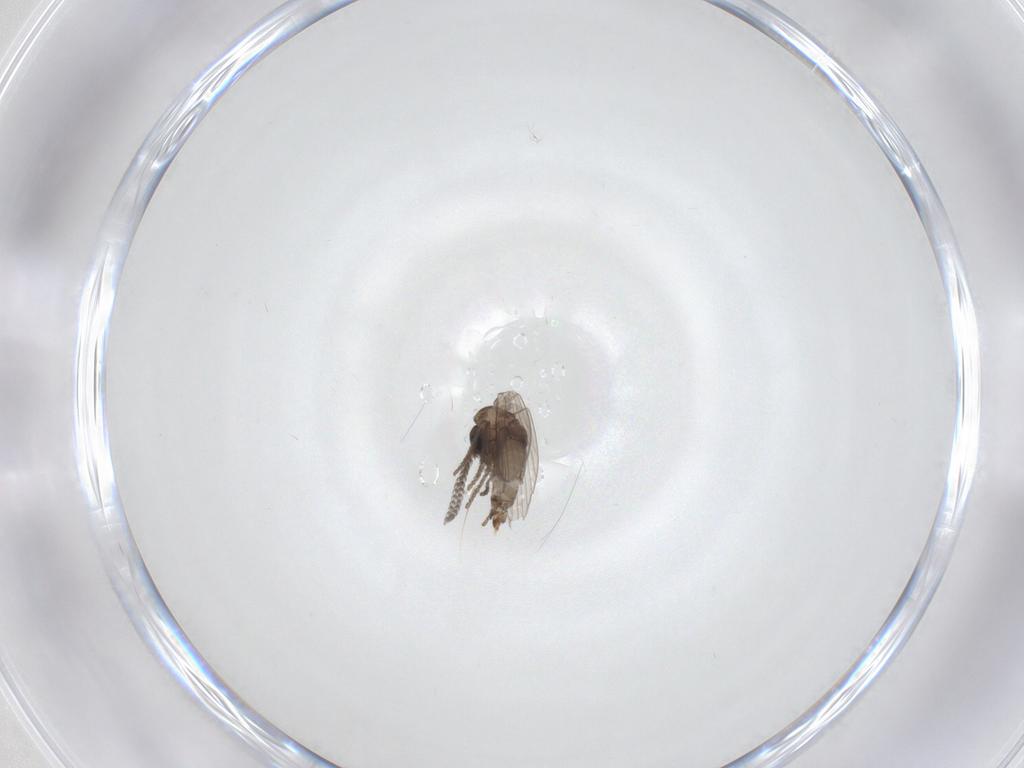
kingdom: Animalia
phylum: Arthropoda
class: Insecta
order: Diptera
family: Psychodidae
